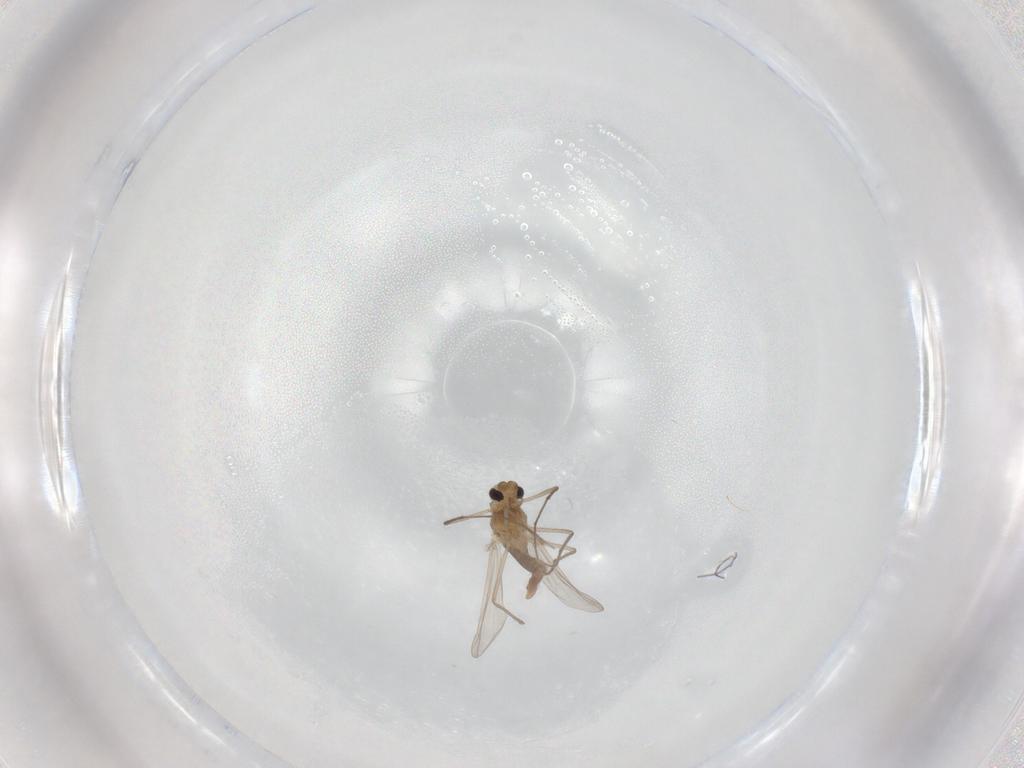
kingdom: Animalia
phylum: Arthropoda
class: Insecta
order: Diptera
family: Chironomidae
